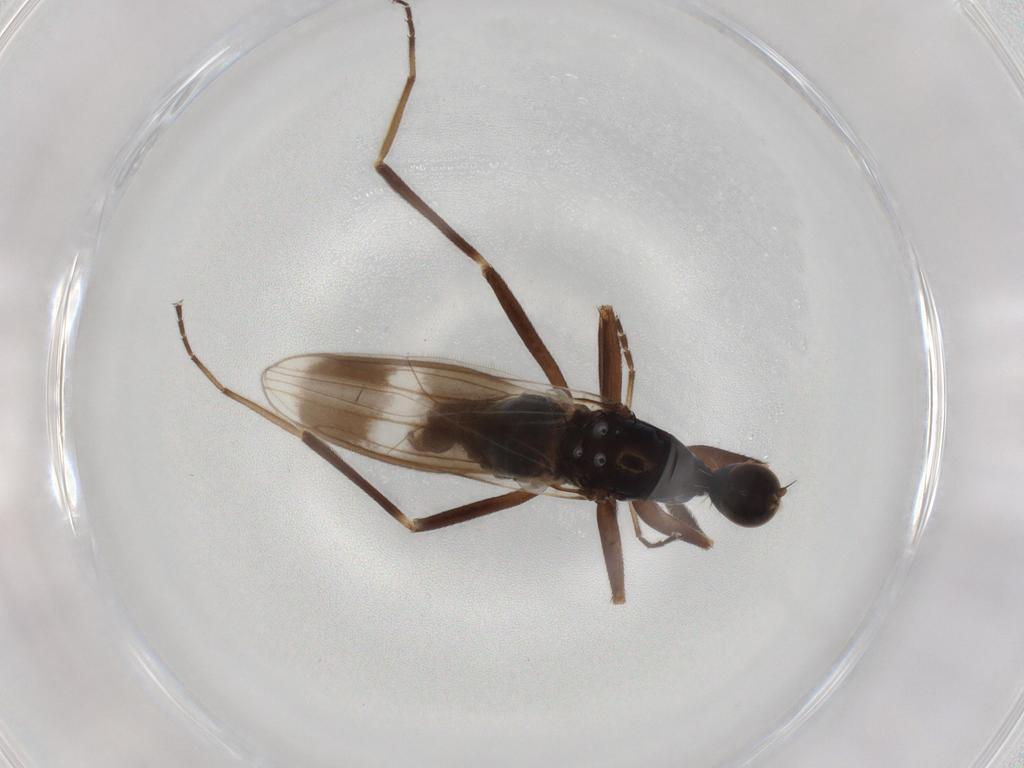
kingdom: Animalia
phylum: Arthropoda
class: Insecta
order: Diptera
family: Hybotidae
